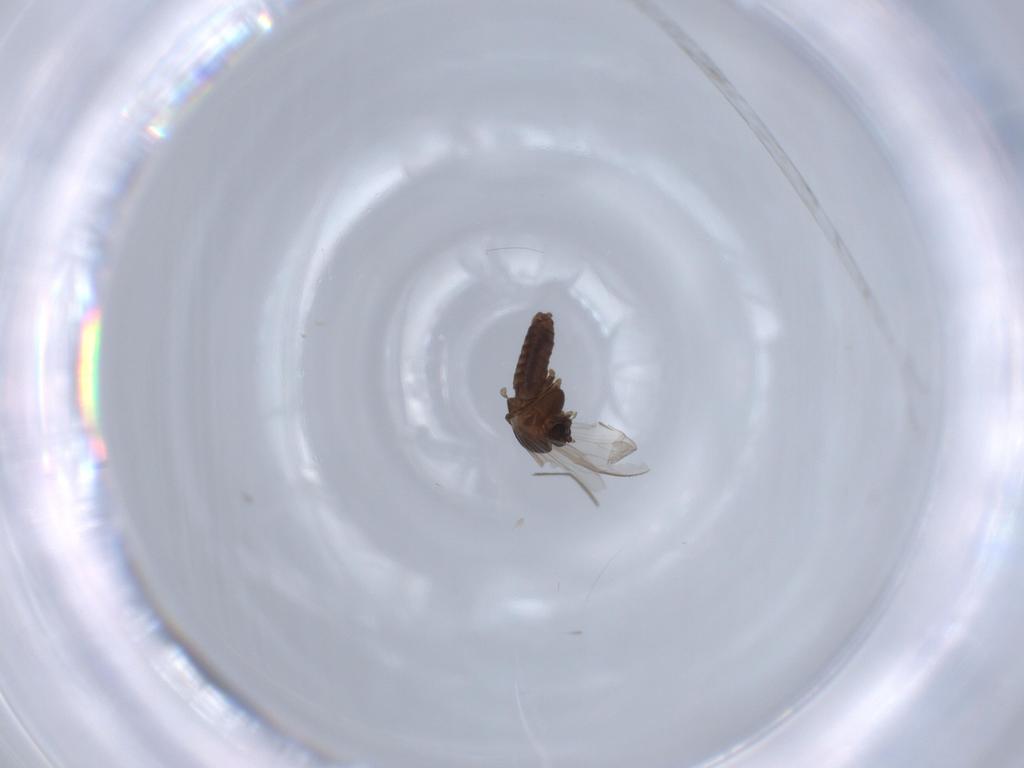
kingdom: Animalia
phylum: Arthropoda
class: Insecta
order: Diptera
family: Chironomidae
